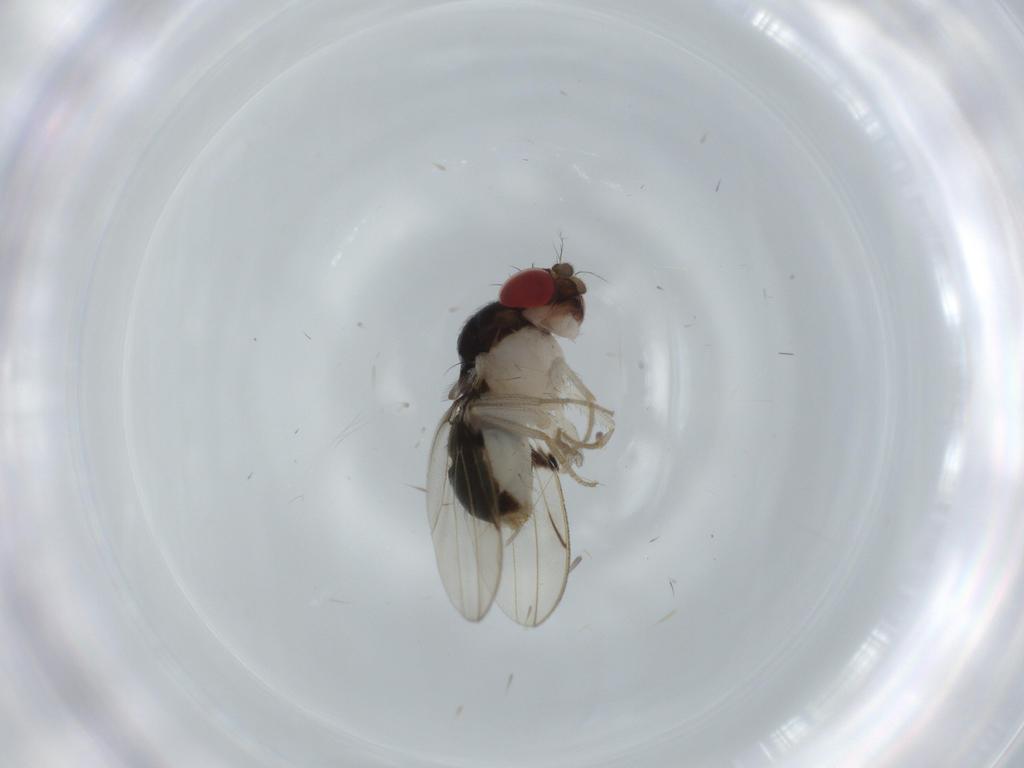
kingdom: Animalia
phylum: Arthropoda
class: Insecta
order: Diptera
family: Drosophilidae
